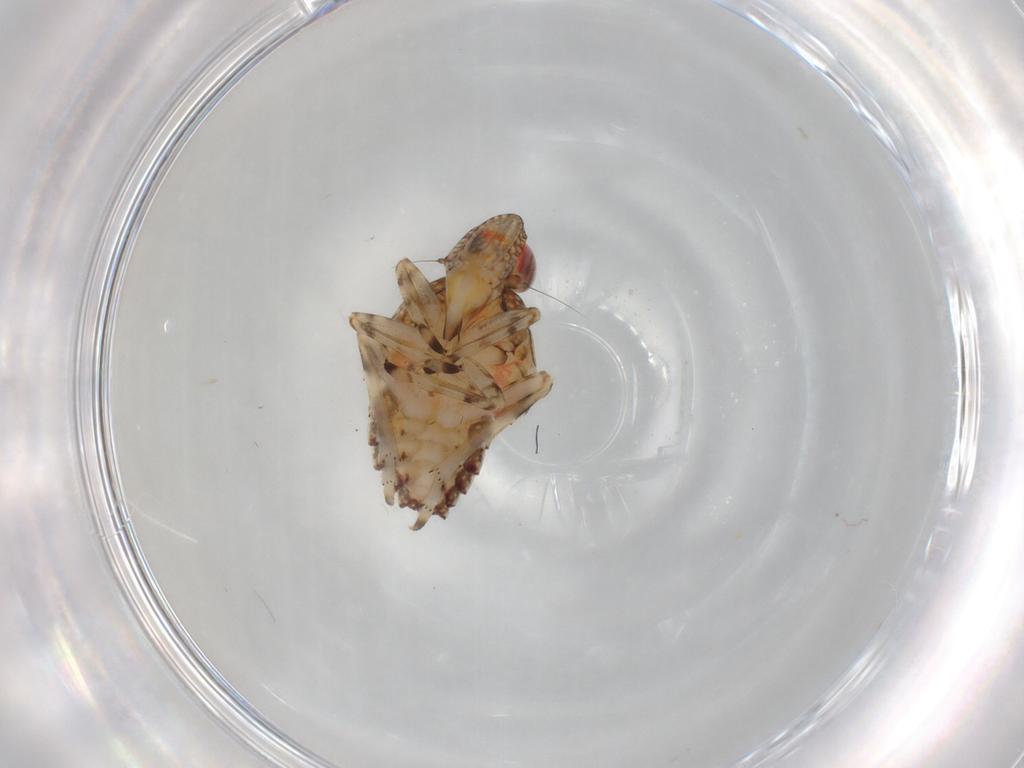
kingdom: Animalia
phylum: Arthropoda
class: Insecta
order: Hemiptera
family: Tropiduchidae
